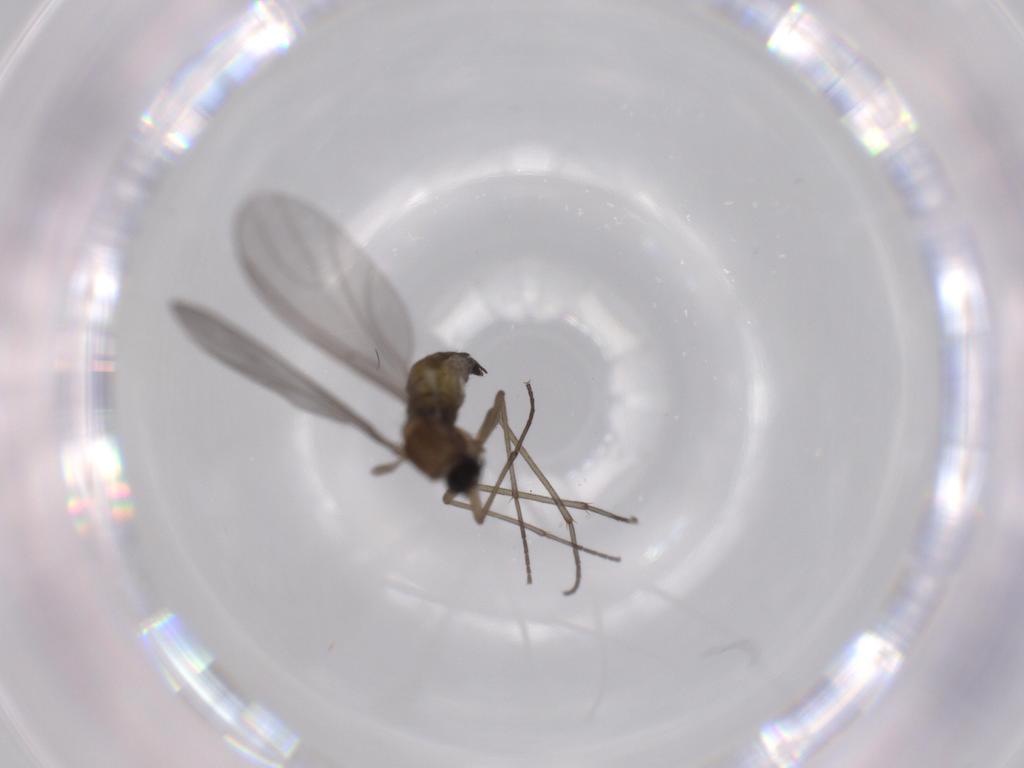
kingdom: Animalia
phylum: Arthropoda
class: Insecta
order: Diptera
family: Sciaridae
